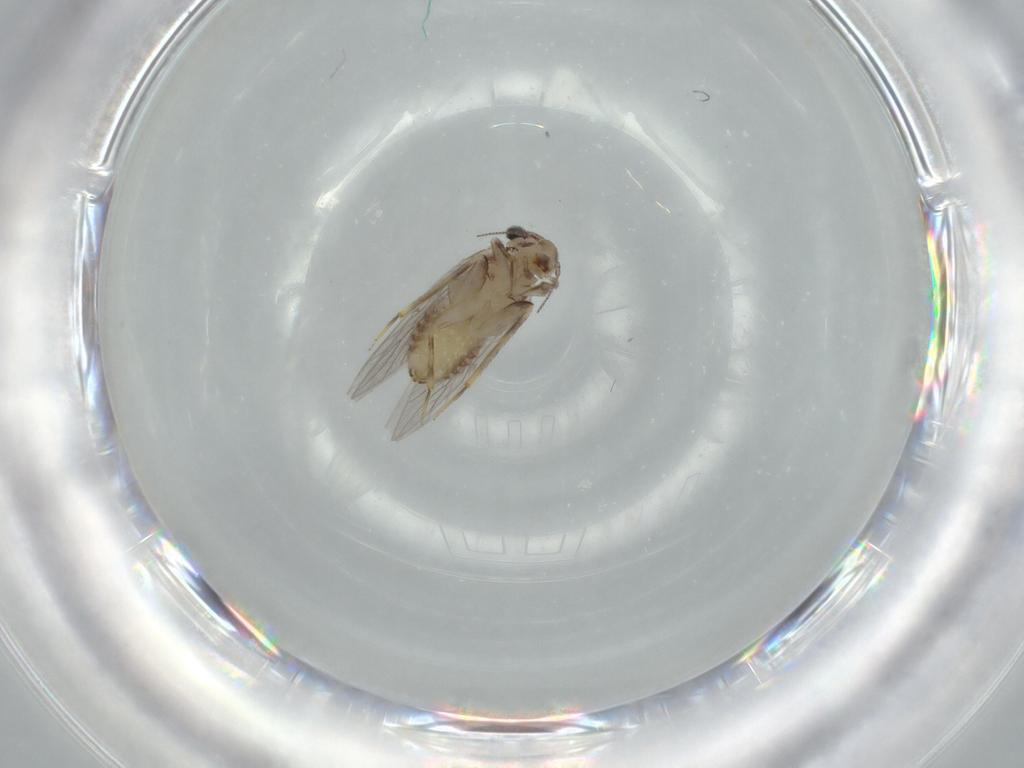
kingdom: Animalia
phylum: Arthropoda
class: Insecta
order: Psocodea
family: Lepidopsocidae
